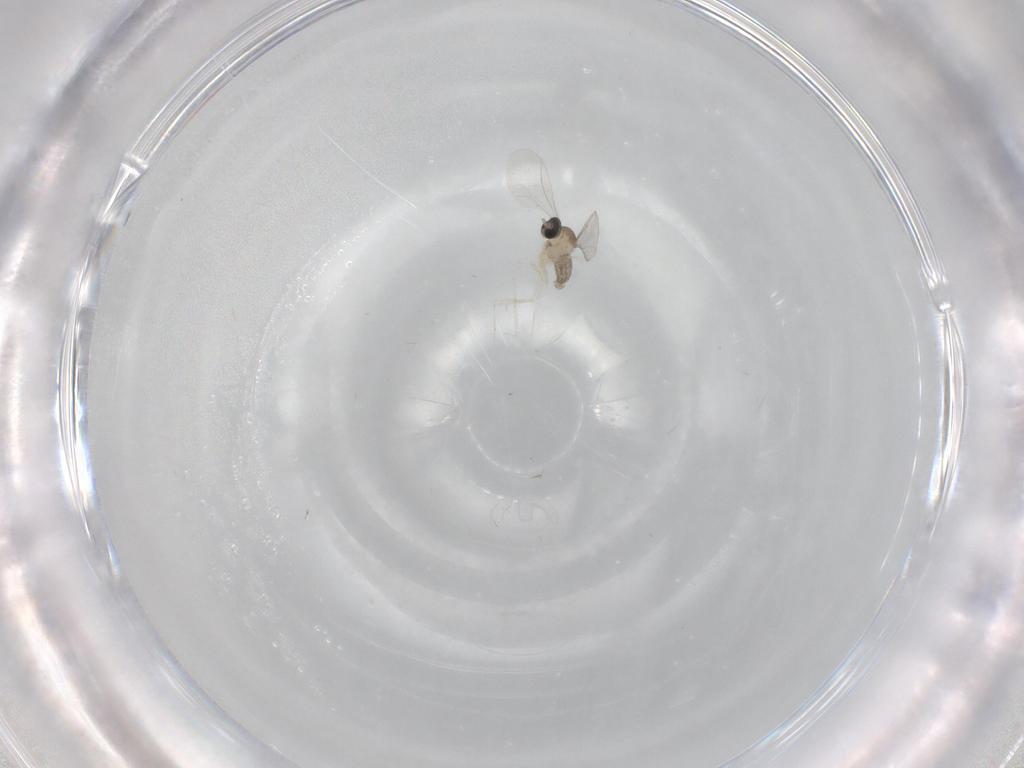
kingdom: Animalia
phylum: Arthropoda
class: Insecta
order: Diptera
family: Cecidomyiidae
